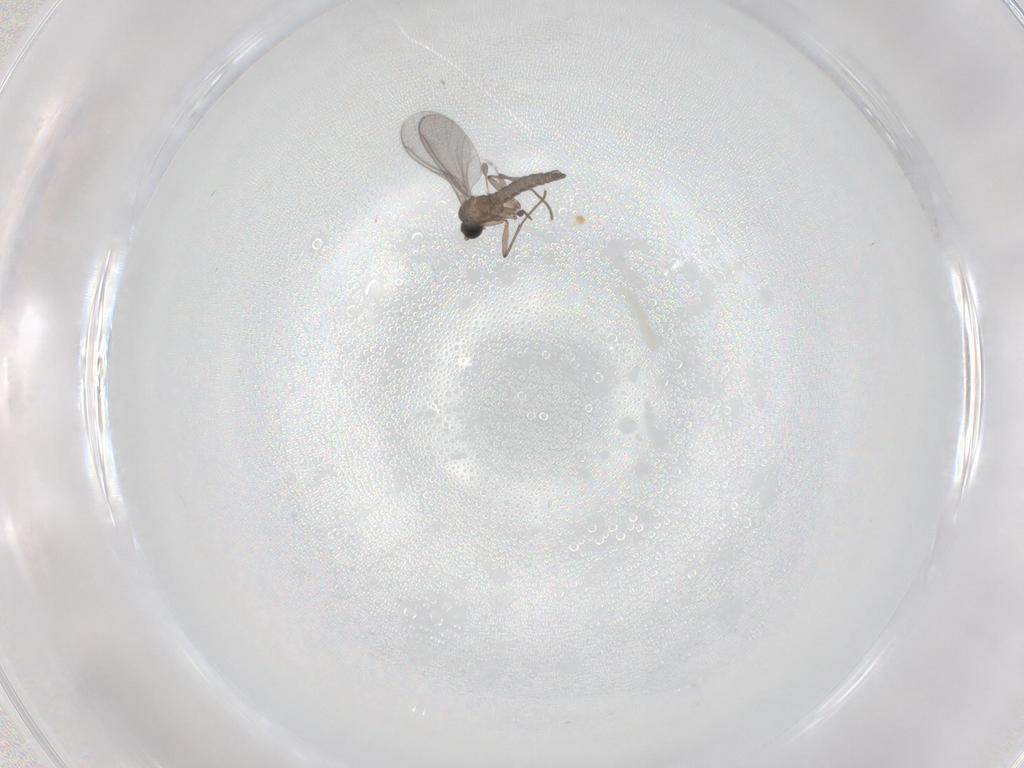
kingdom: Animalia
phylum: Arthropoda
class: Insecta
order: Diptera
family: Sciaridae
